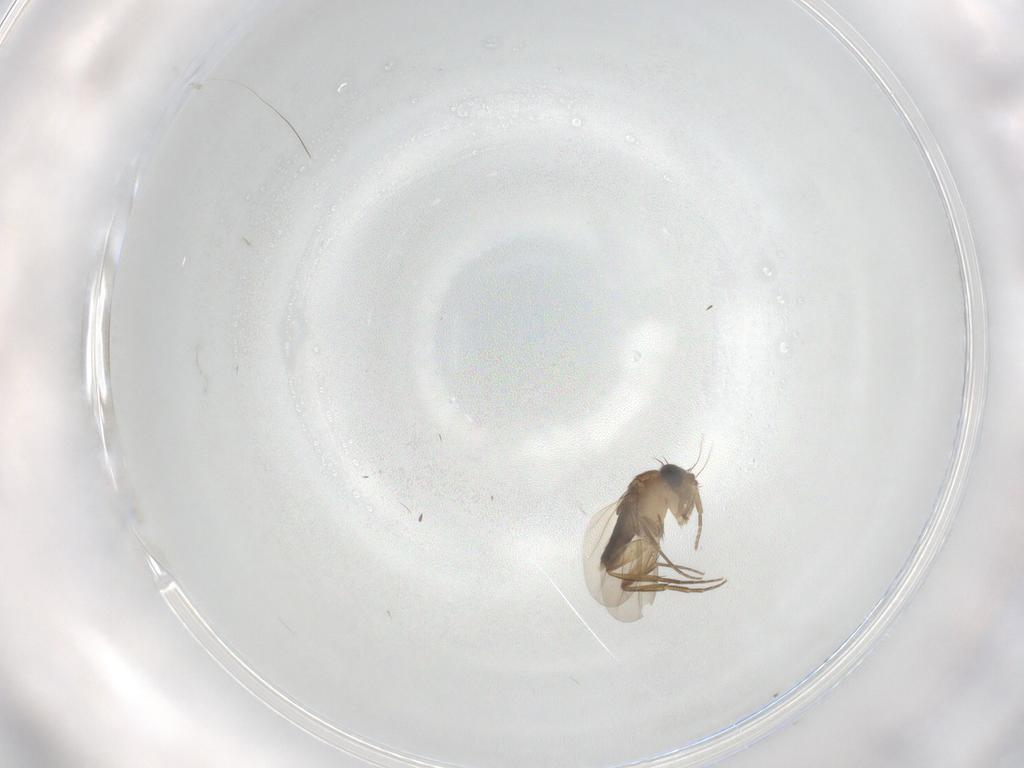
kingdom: Animalia
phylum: Arthropoda
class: Insecta
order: Diptera
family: Phoridae
